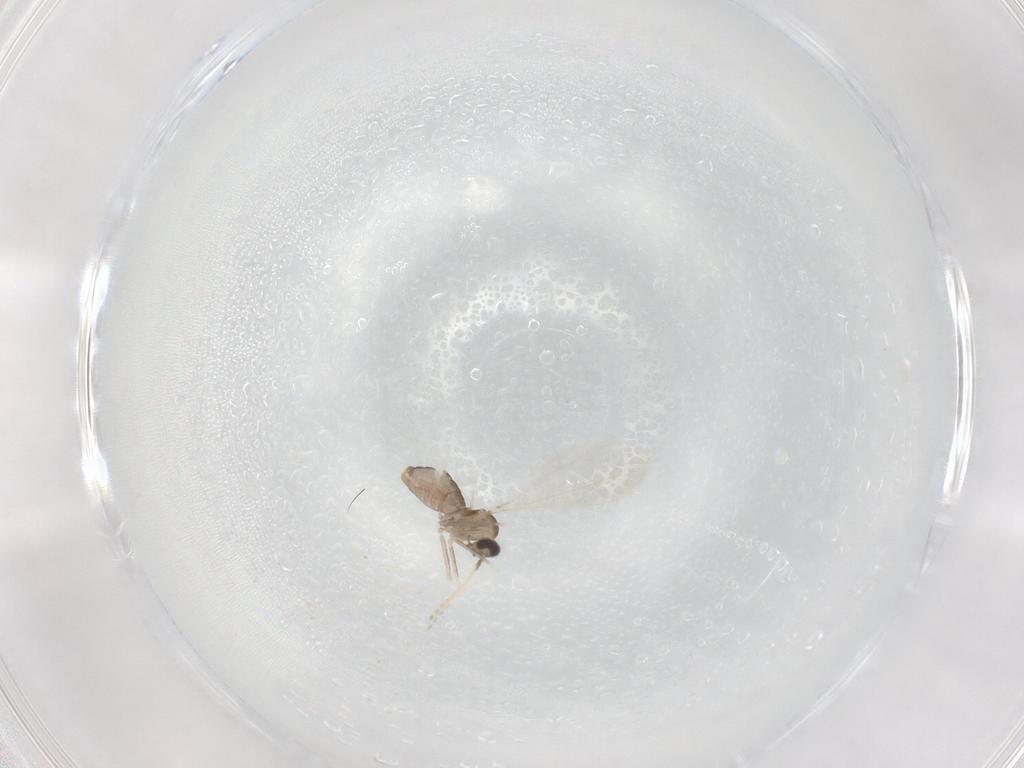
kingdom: Animalia
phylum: Arthropoda
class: Insecta
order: Diptera
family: Cecidomyiidae
